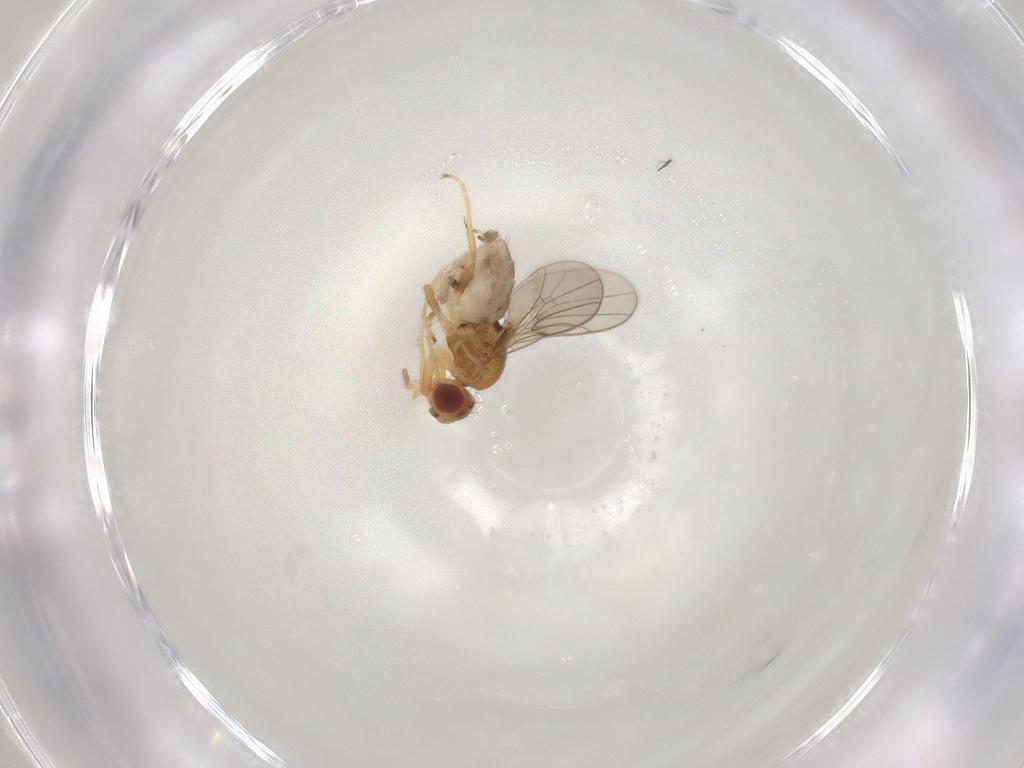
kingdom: Animalia
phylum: Arthropoda
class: Insecta
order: Diptera
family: Chloropidae
